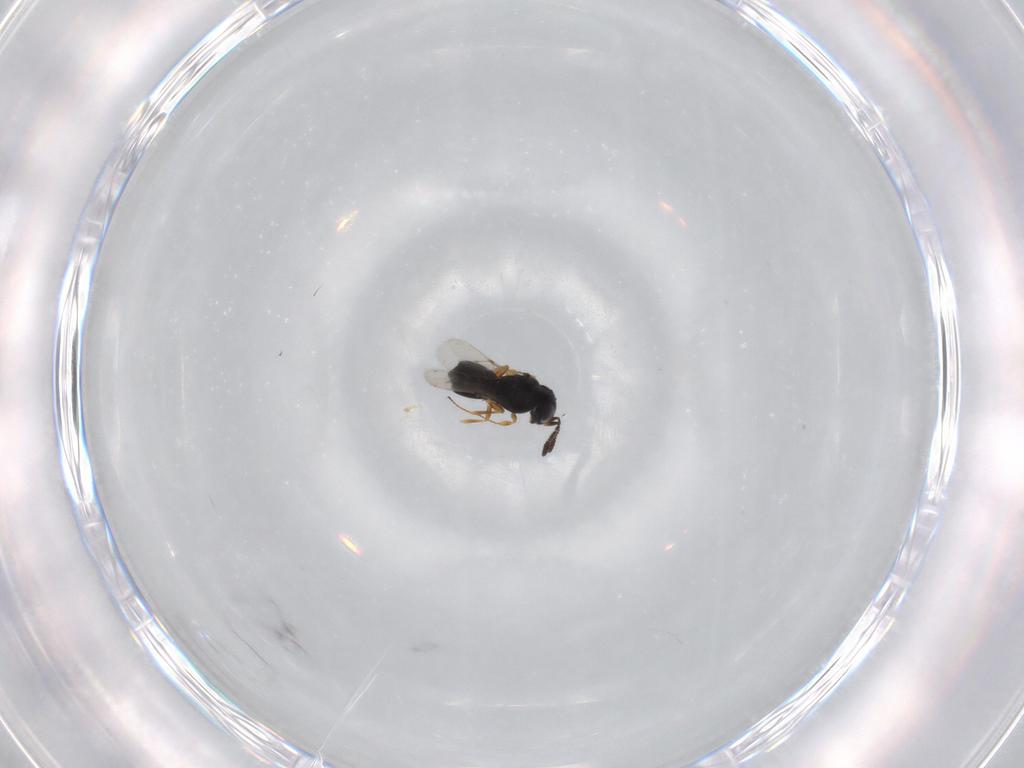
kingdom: Animalia
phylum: Arthropoda
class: Insecta
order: Hymenoptera
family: Scelionidae
